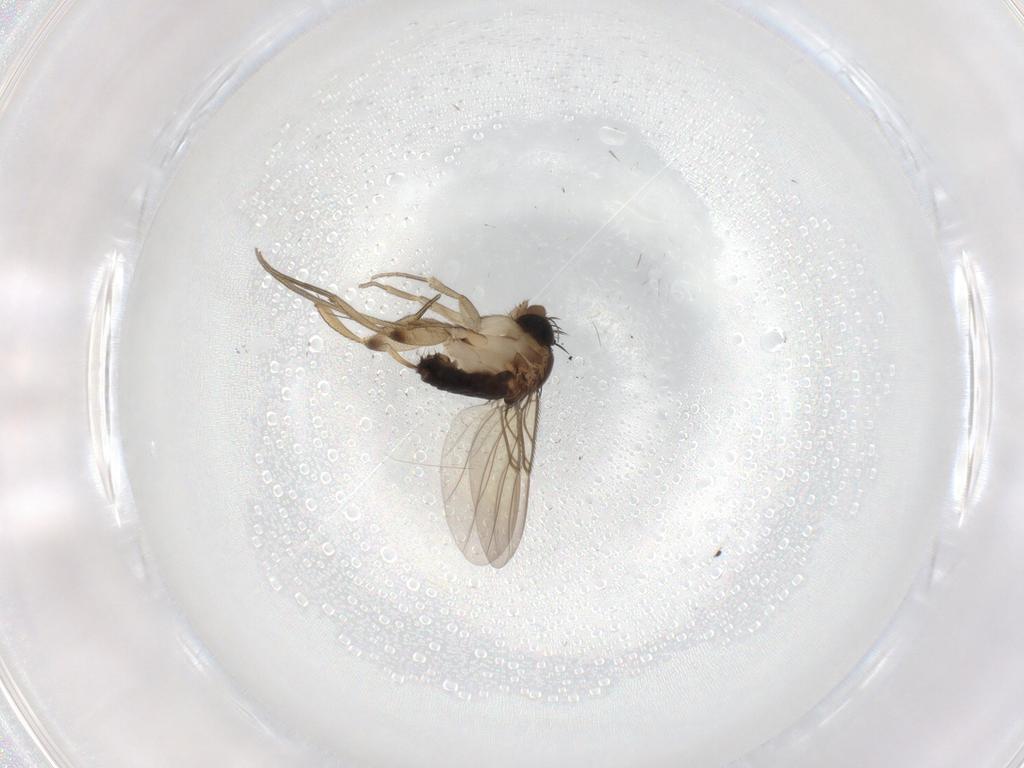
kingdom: Animalia
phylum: Arthropoda
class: Insecta
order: Diptera
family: Phoridae
